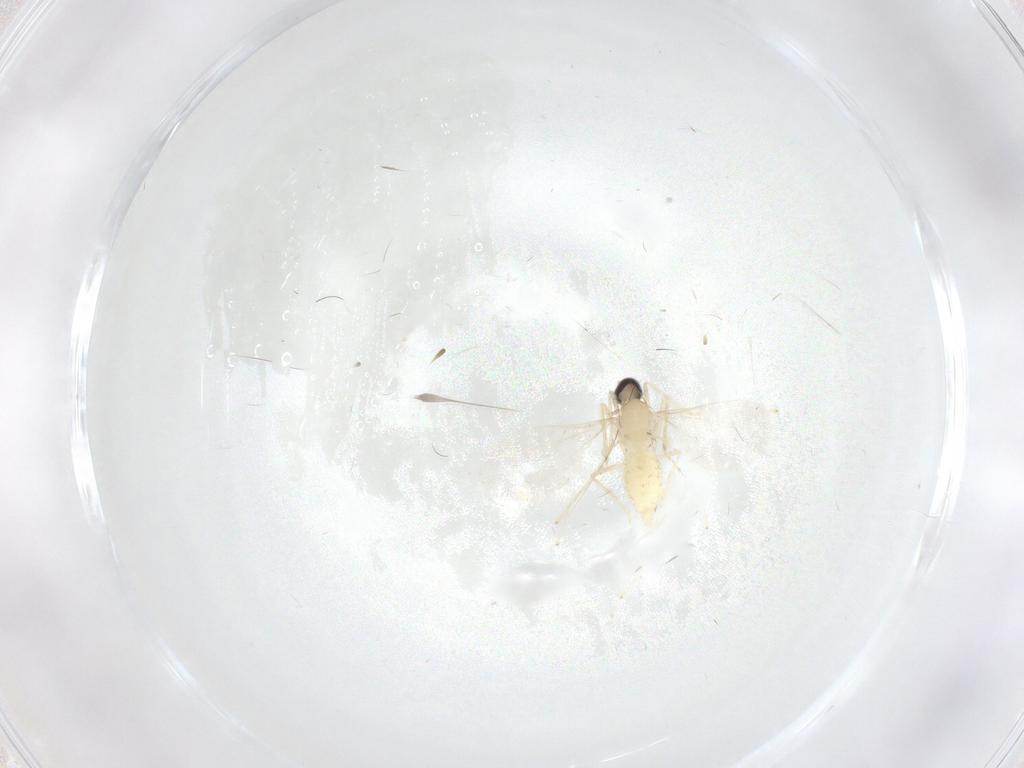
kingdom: Animalia
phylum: Arthropoda
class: Insecta
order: Diptera
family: Cecidomyiidae
